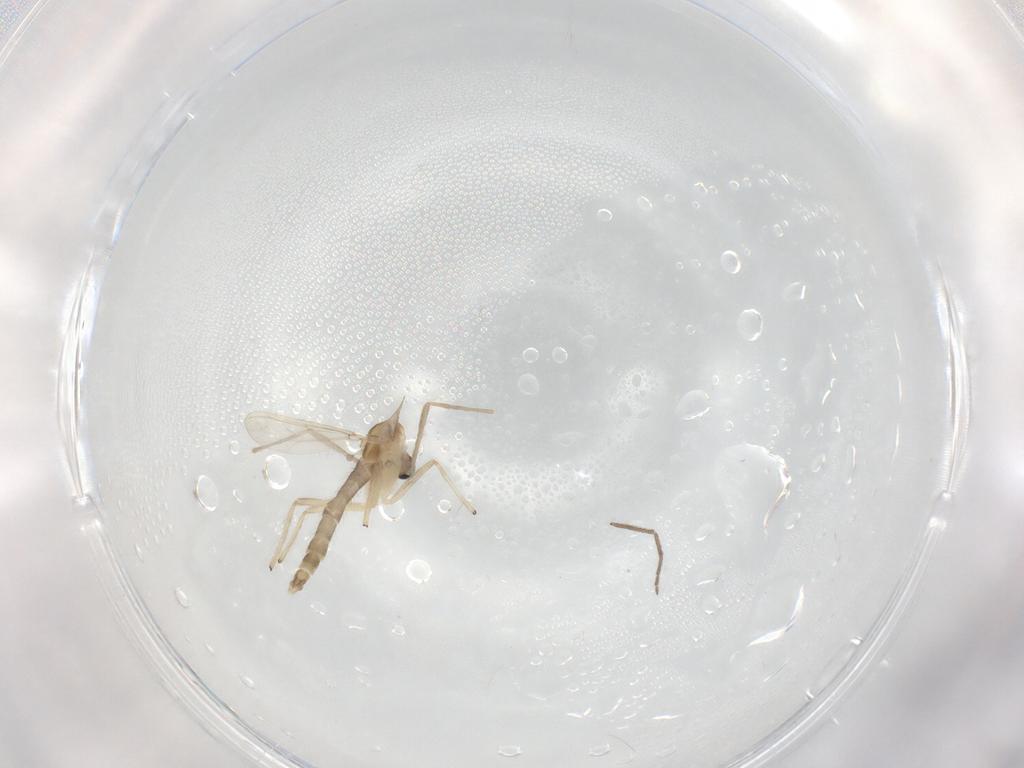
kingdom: Animalia
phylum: Arthropoda
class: Insecta
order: Diptera
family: Chironomidae
